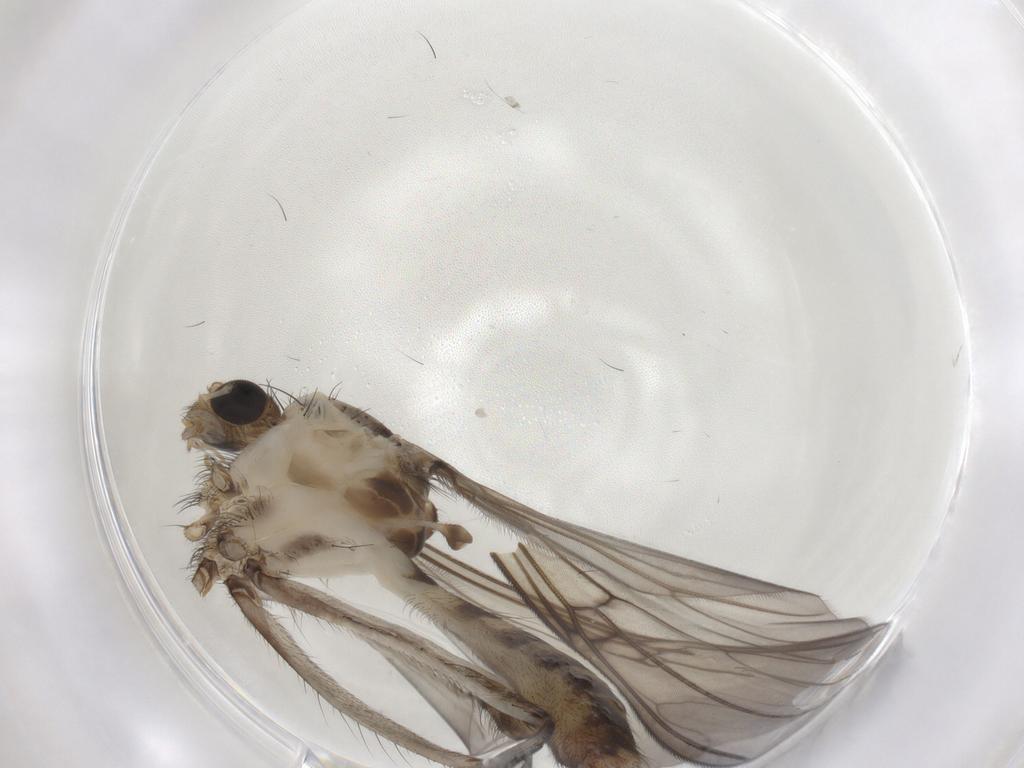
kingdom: Animalia
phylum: Arthropoda
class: Insecta
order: Diptera
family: Mycetophilidae
